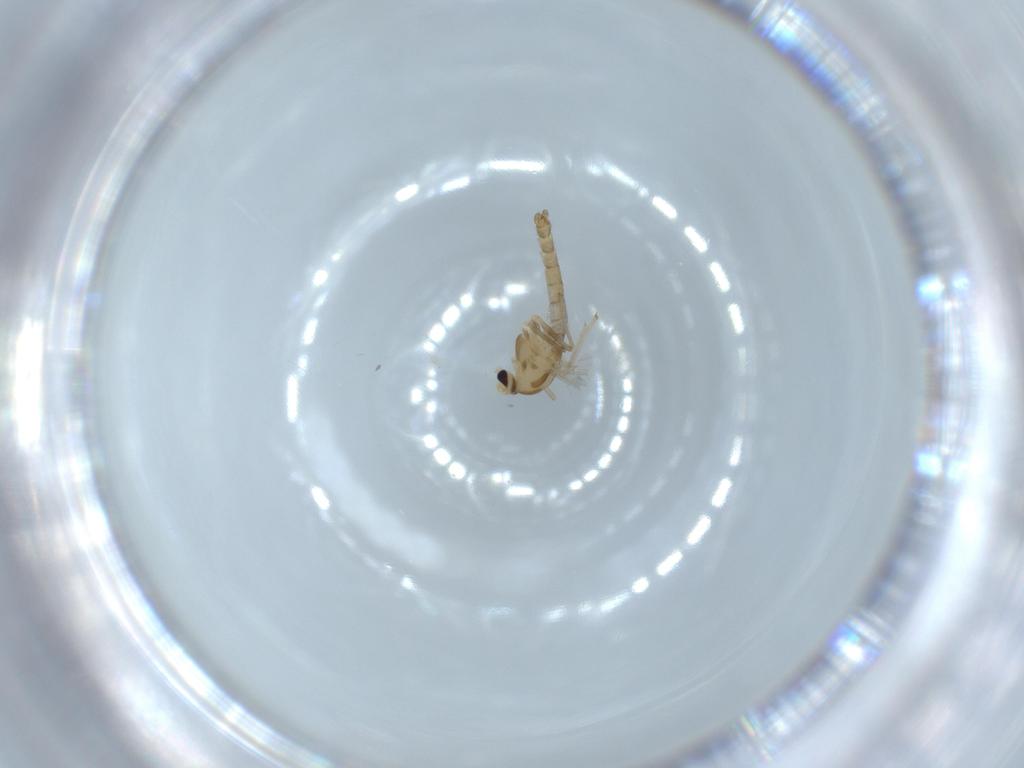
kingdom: Animalia
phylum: Arthropoda
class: Insecta
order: Diptera
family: Chironomidae
